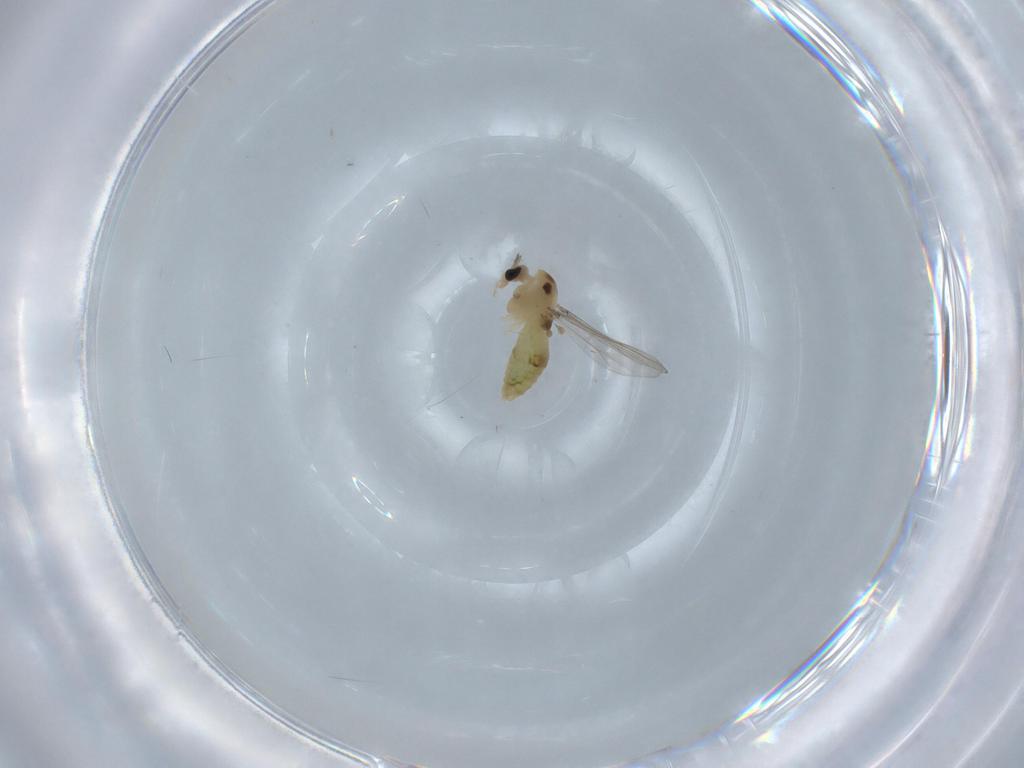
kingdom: Animalia
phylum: Arthropoda
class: Insecta
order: Diptera
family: Chironomidae
